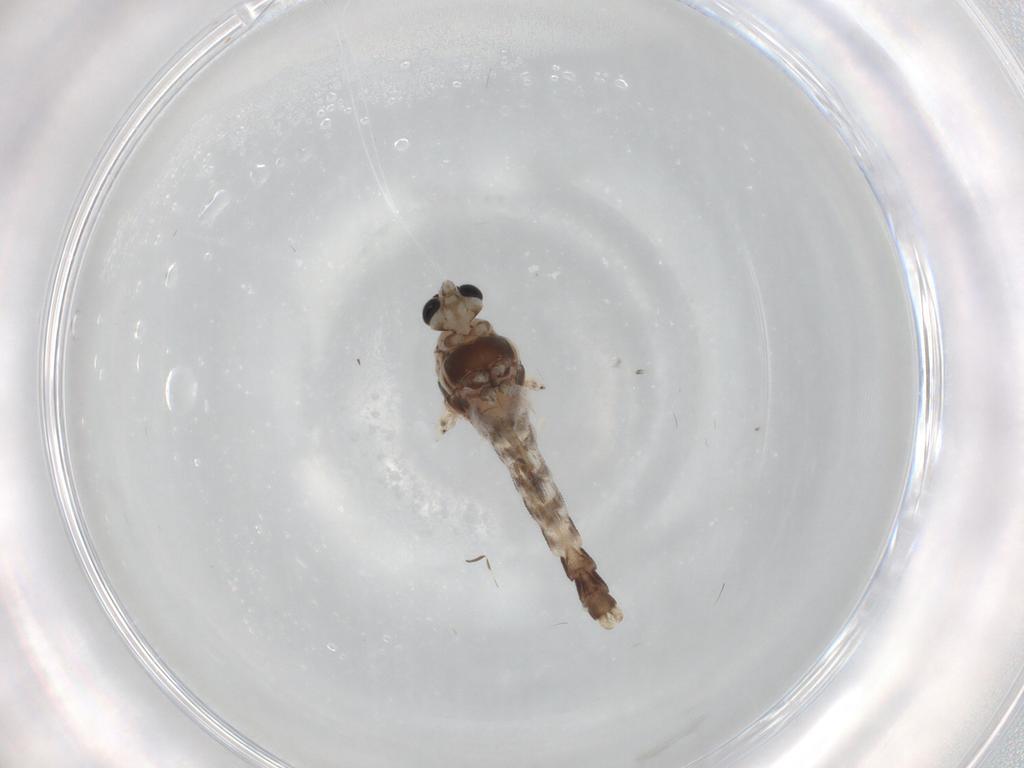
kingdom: Animalia
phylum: Arthropoda
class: Insecta
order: Diptera
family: Chironomidae
